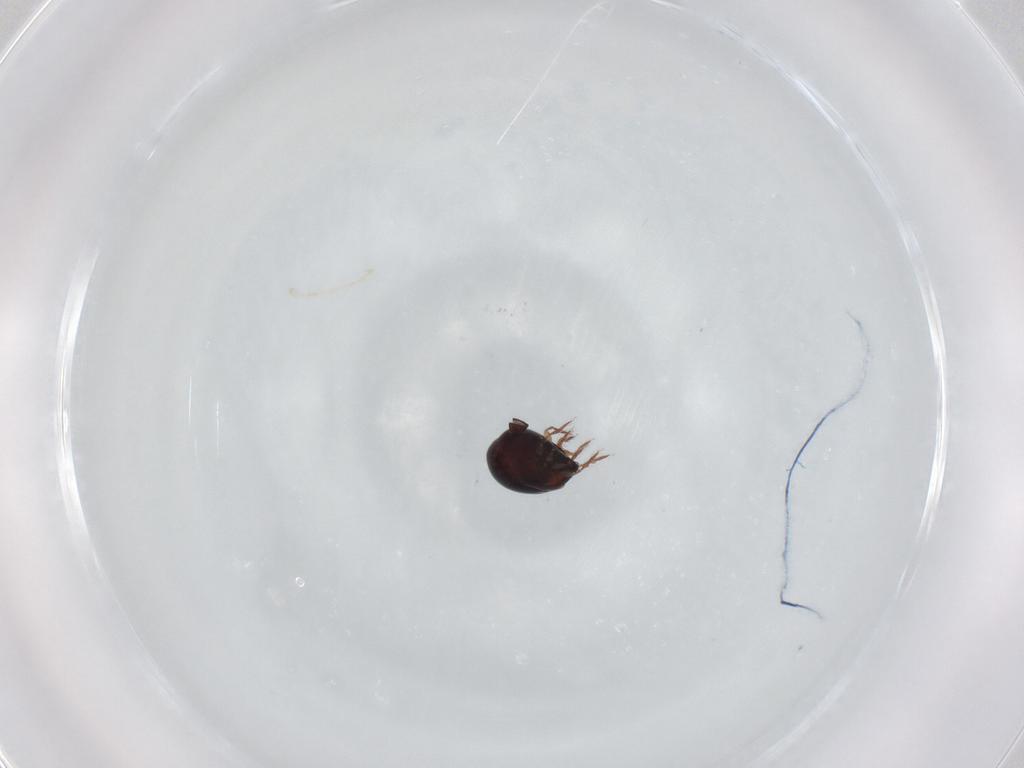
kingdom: Animalia
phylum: Arthropoda
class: Arachnida
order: Sarcoptiformes
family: Ceratozetidae
